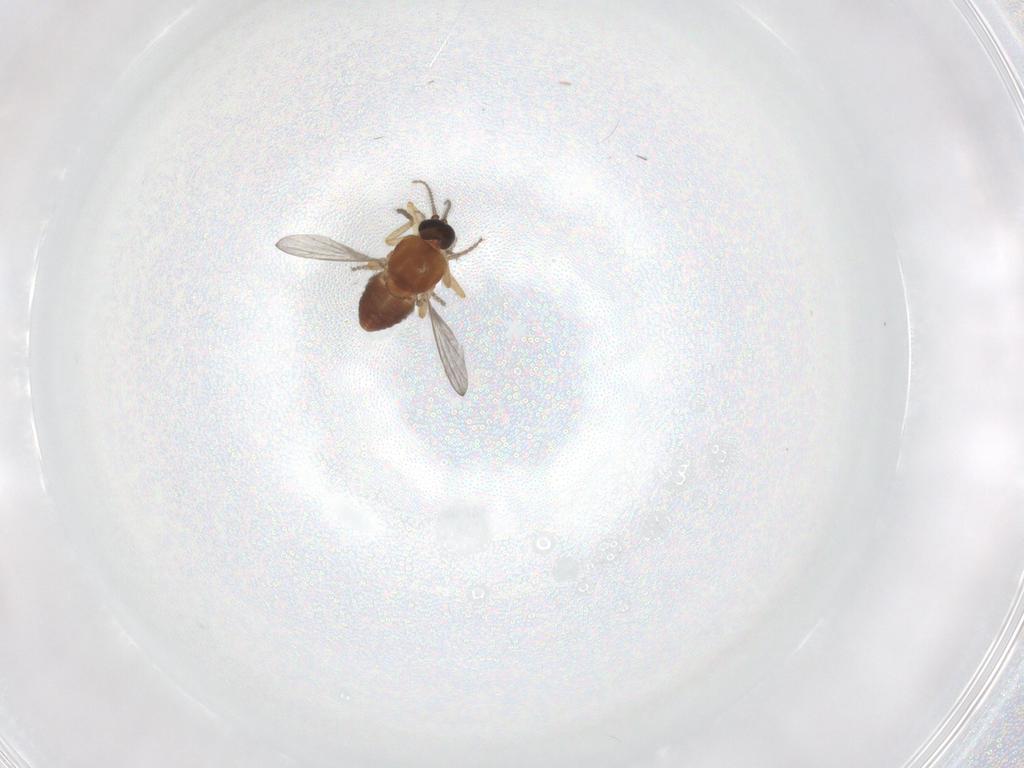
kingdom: Animalia
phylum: Arthropoda
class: Insecta
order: Diptera
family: Ceratopogonidae
